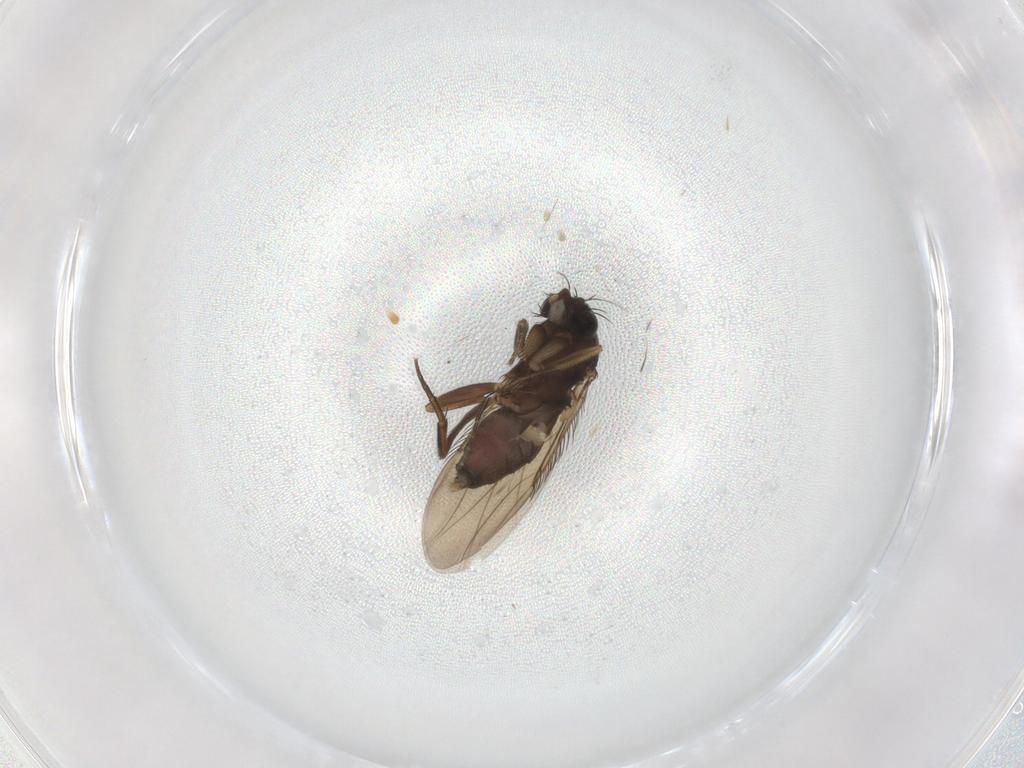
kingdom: Animalia
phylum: Arthropoda
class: Insecta
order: Diptera
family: Phoridae
